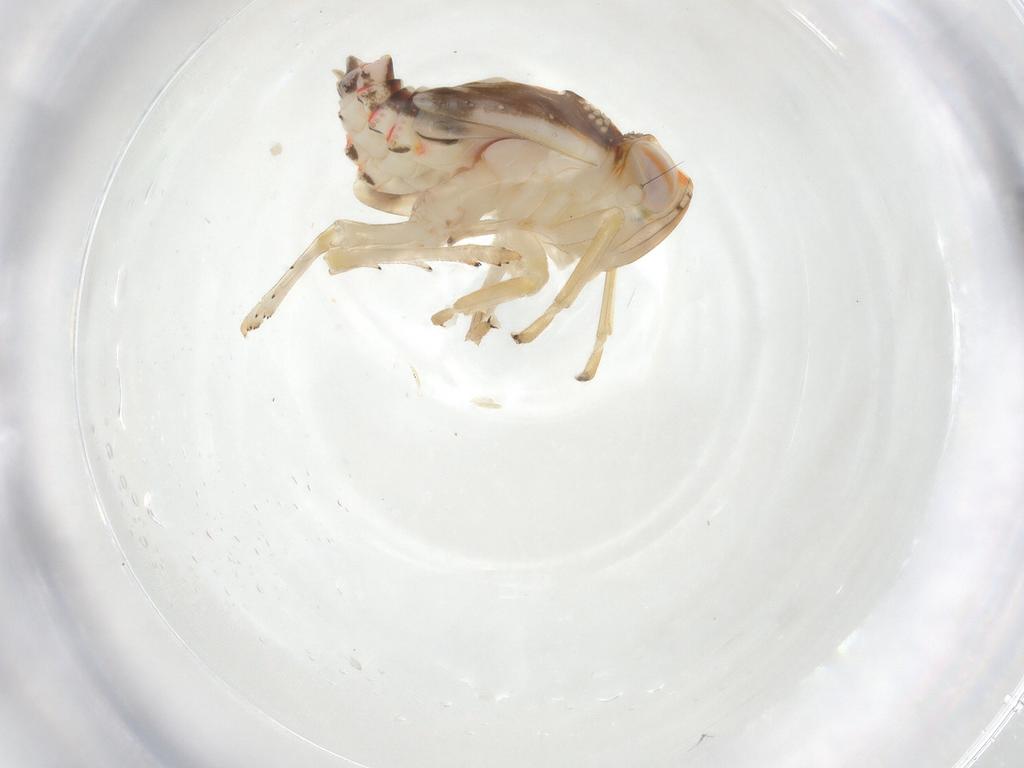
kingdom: Animalia
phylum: Arthropoda
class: Insecta
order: Hemiptera
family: Nogodinidae
